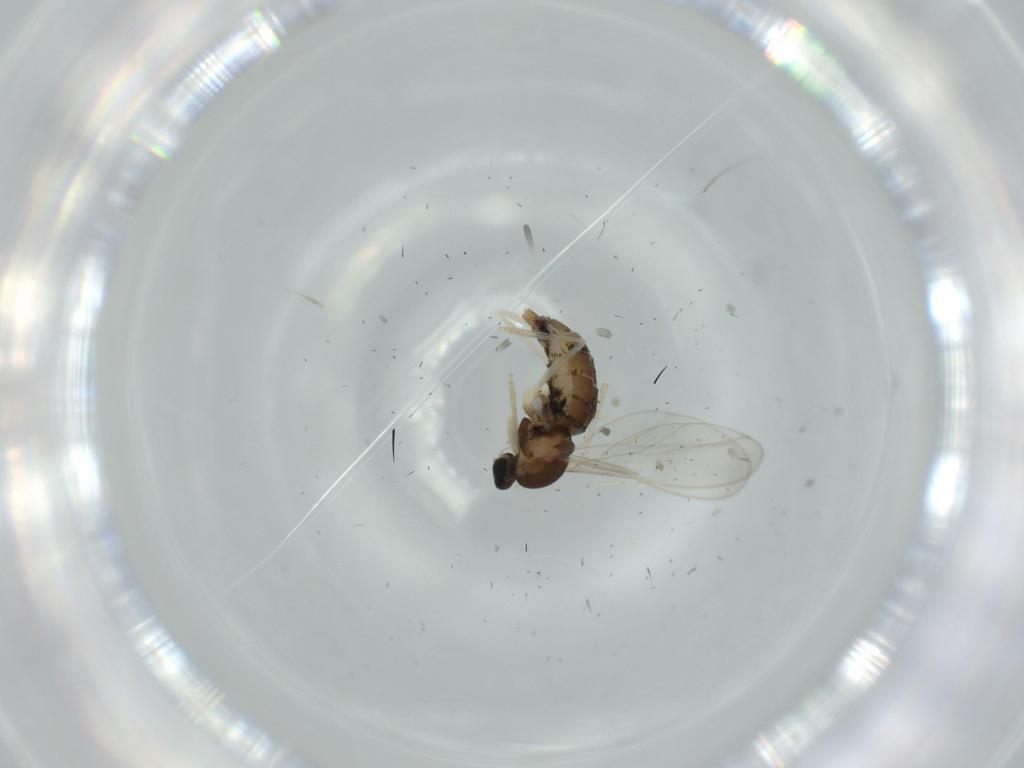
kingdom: Animalia
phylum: Arthropoda
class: Insecta
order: Diptera
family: Cecidomyiidae
